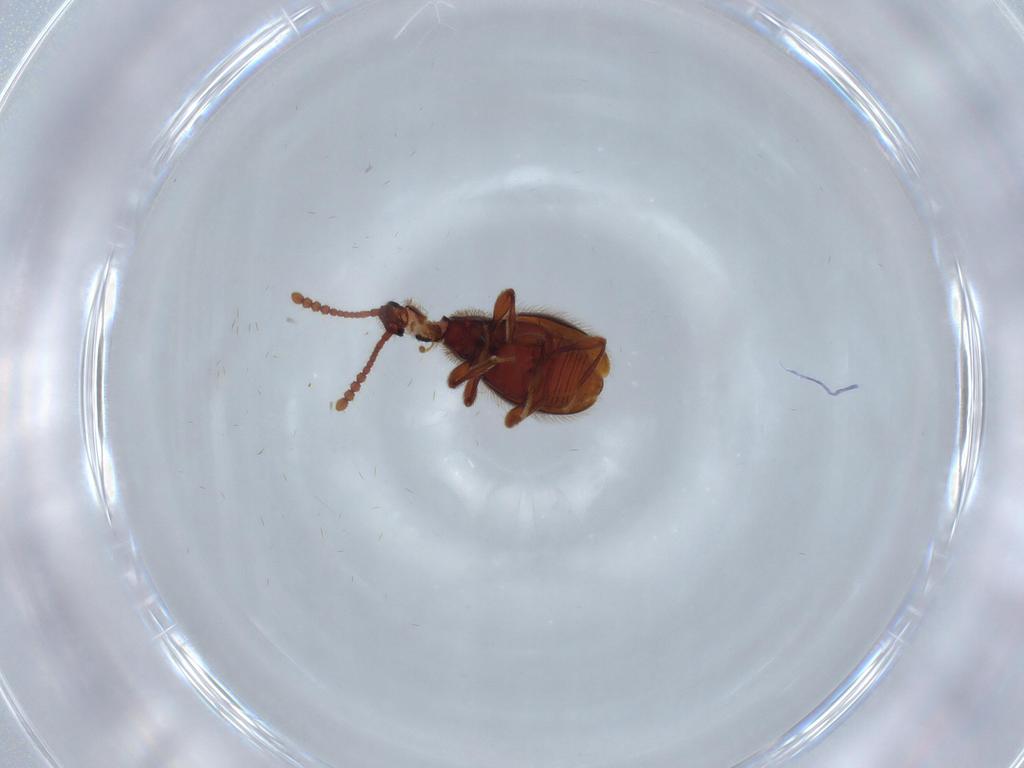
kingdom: Animalia
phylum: Arthropoda
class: Insecta
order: Coleoptera
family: Staphylinidae
